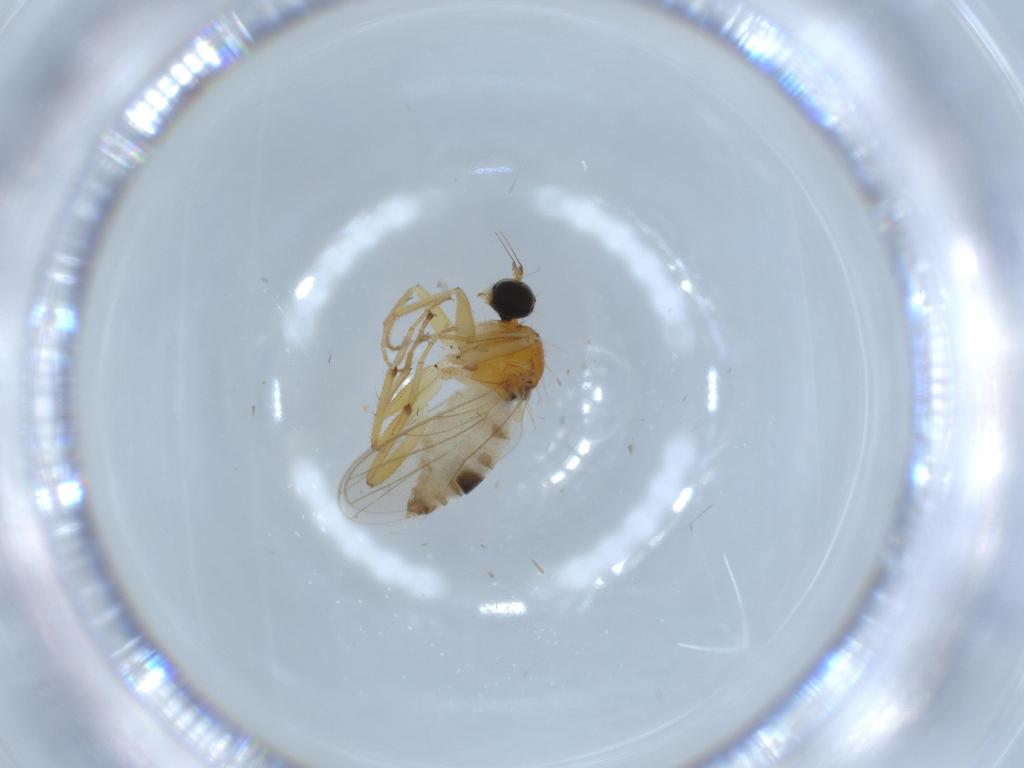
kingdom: Animalia
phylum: Arthropoda
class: Insecta
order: Diptera
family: Hybotidae
